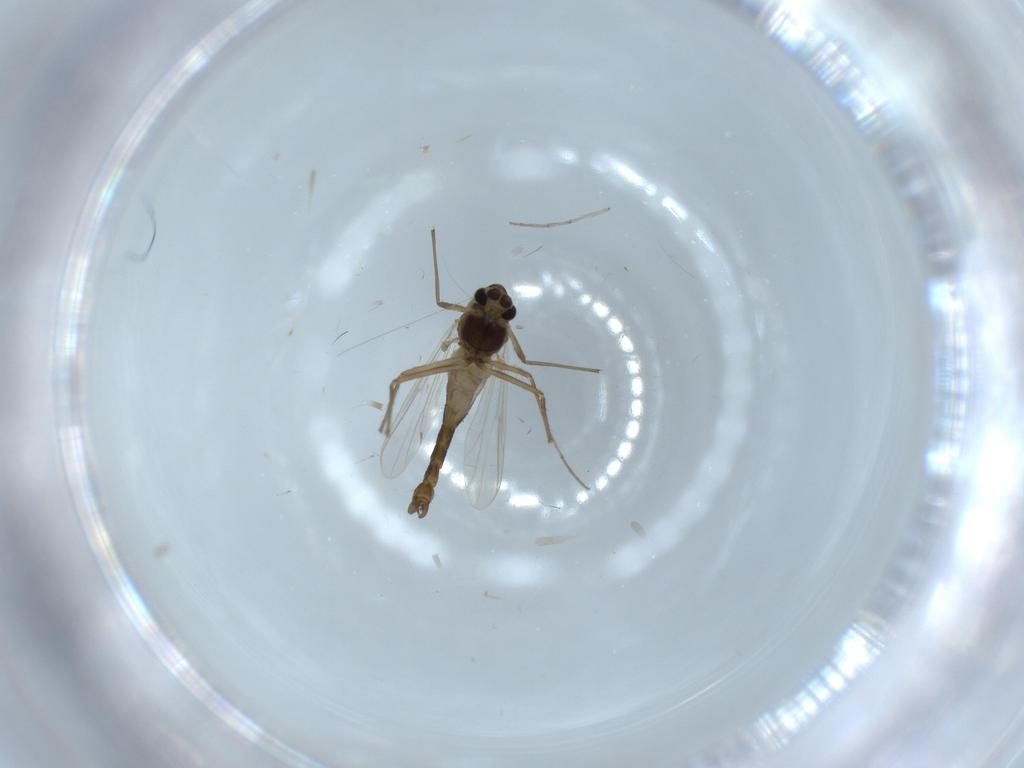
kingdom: Animalia
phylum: Arthropoda
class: Insecta
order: Diptera
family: Chironomidae
